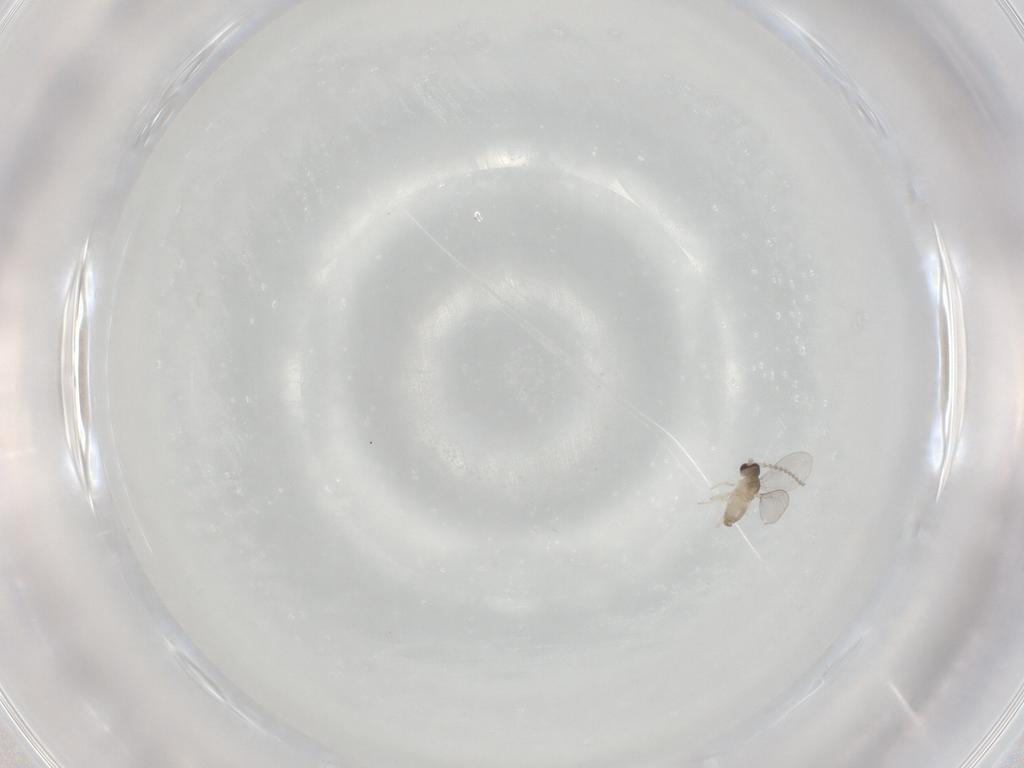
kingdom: Animalia
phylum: Arthropoda
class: Insecta
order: Diptera
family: Sciaridae
